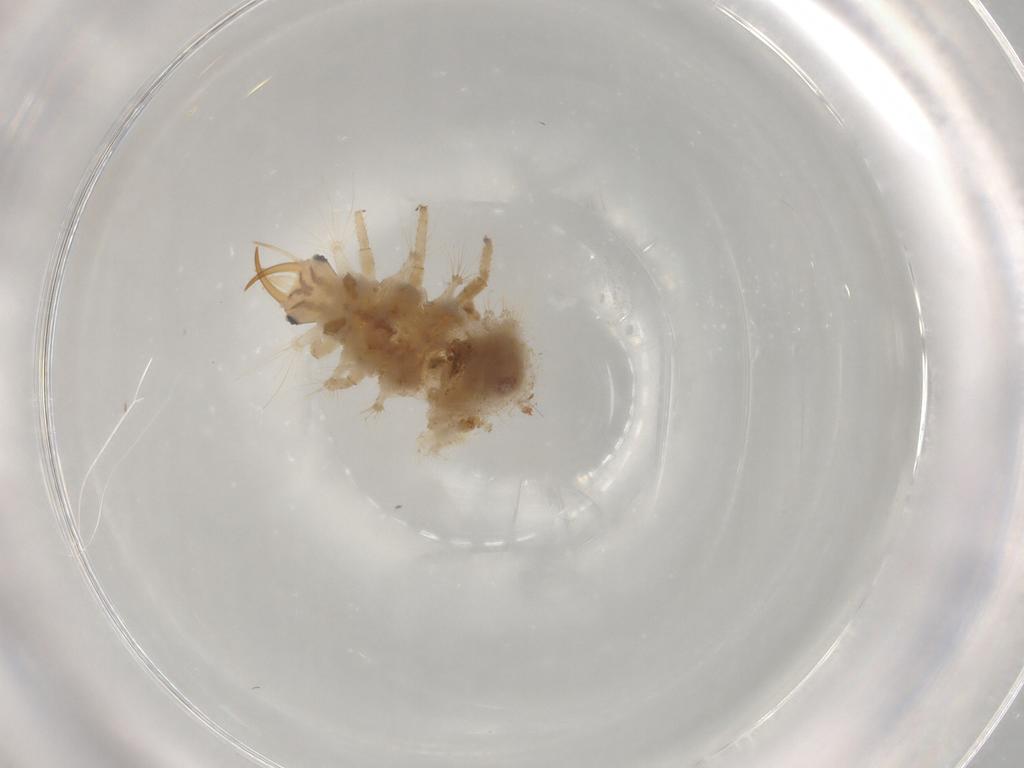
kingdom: Animalia
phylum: Arthropoda
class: Insecta
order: Neuroptera
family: Chrysopidae
